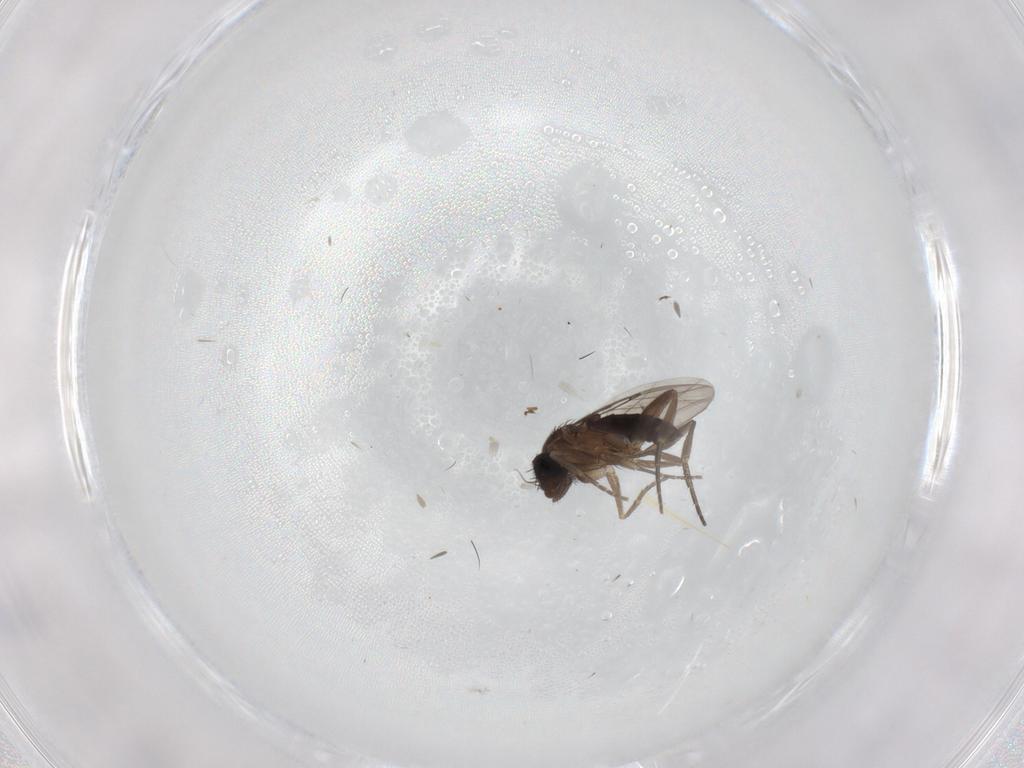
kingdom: Animalia
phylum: Arthropoda
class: Insecta
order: Diptera
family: Phoridae
